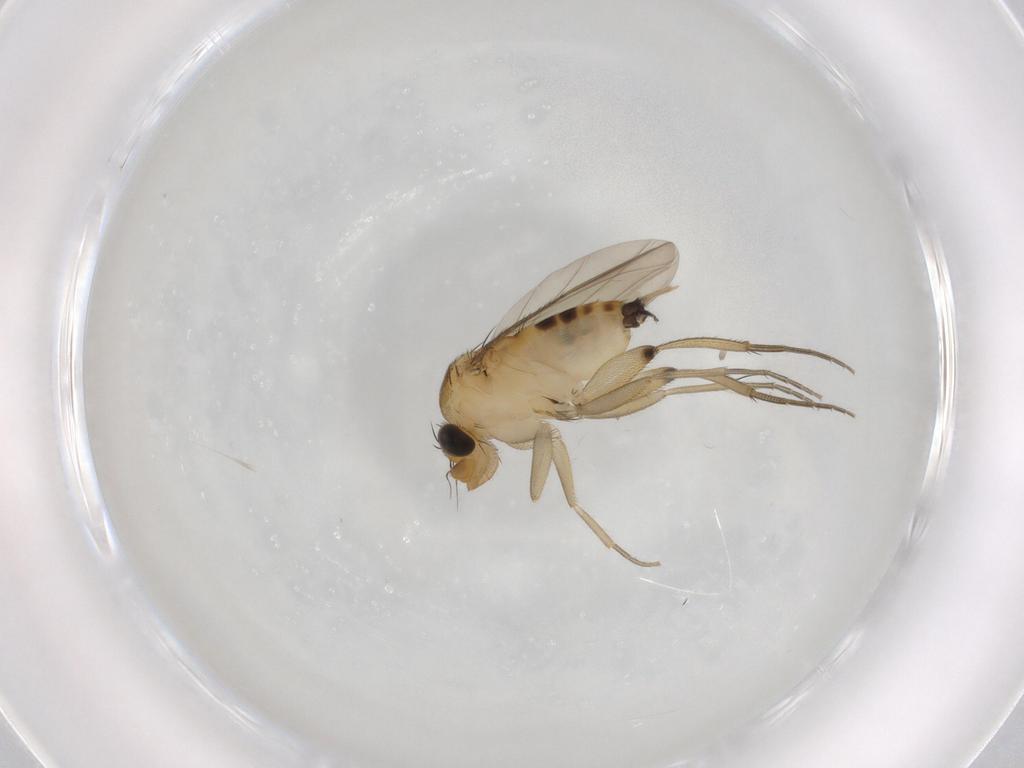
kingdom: Animalia
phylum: Arthropoda
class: Insecta
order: Diptera
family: Phoridae
